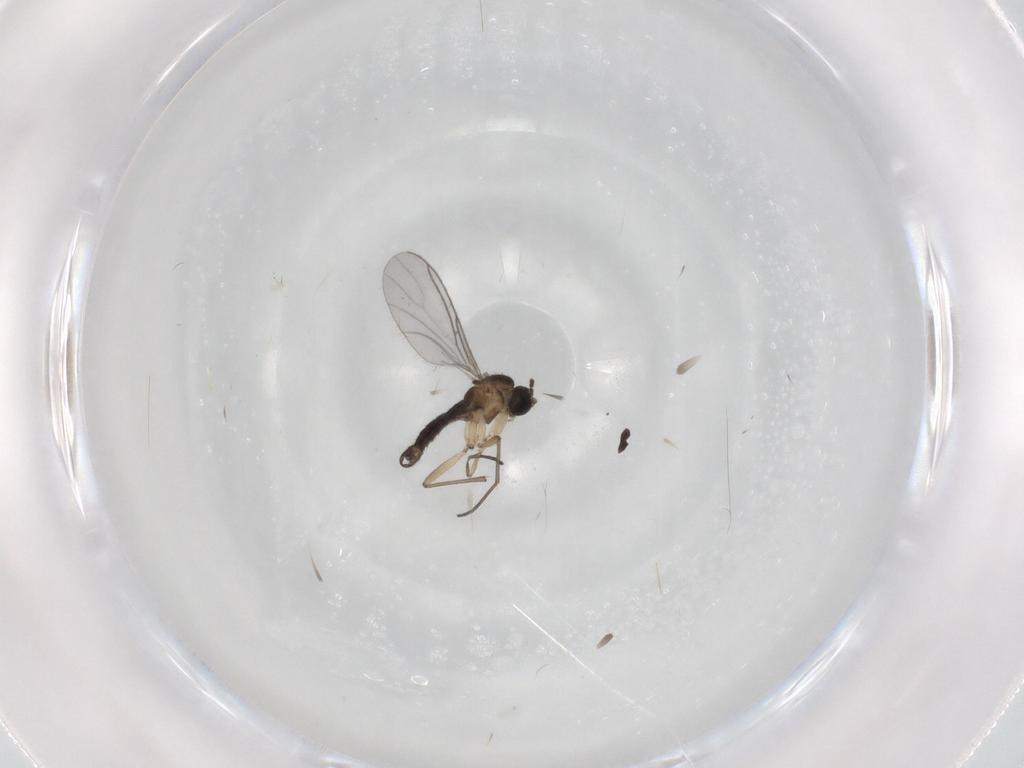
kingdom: Animalia
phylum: Arthropoda
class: Insecta
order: Diptera
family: Sciaridae
